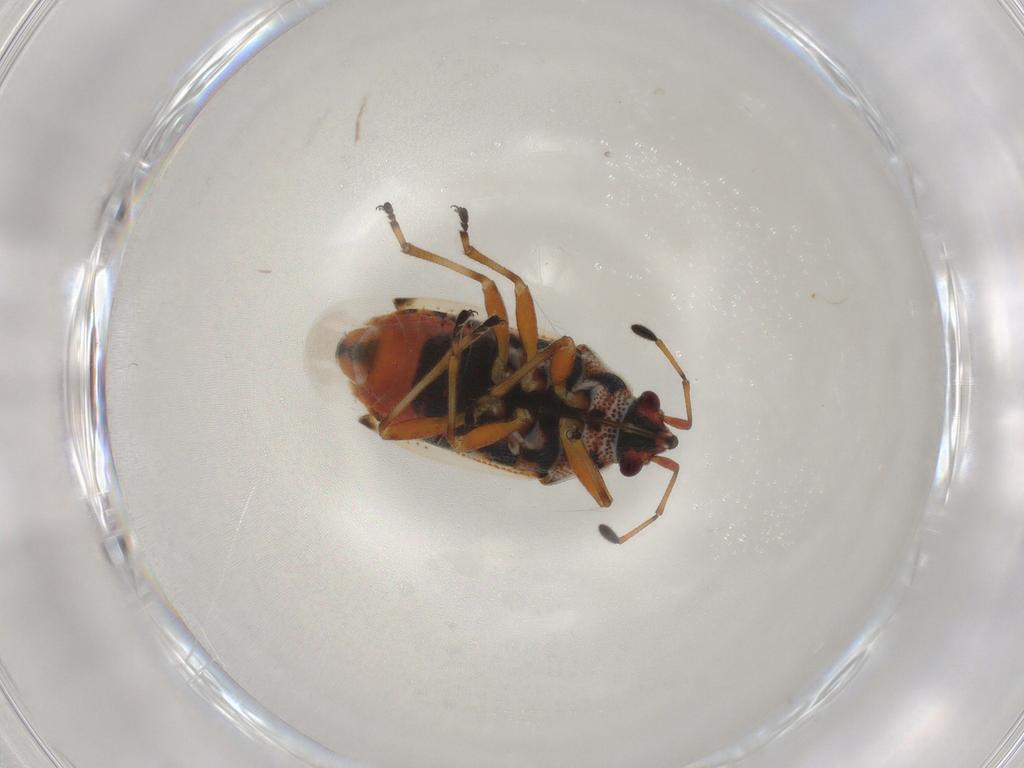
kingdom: Animalia
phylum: Arthropoda
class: Insecta
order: Hemiptera
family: Lygaeidae
